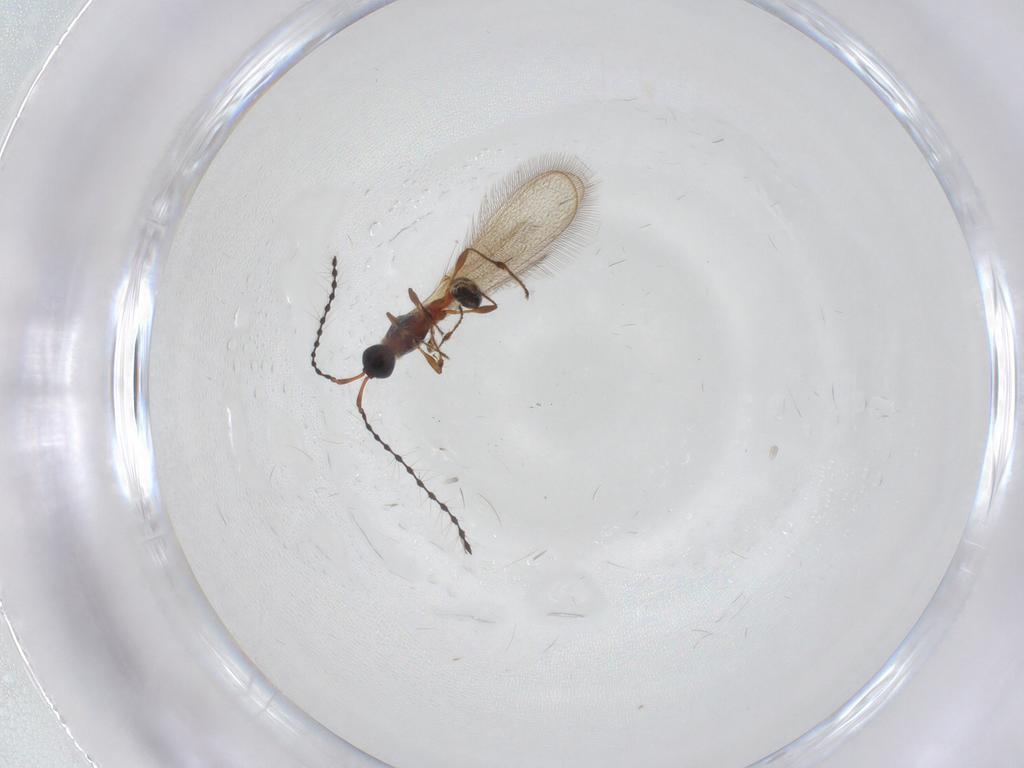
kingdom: Animalia
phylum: Arthropoda
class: Insecta
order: Hymenoptera
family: Diapriidae
